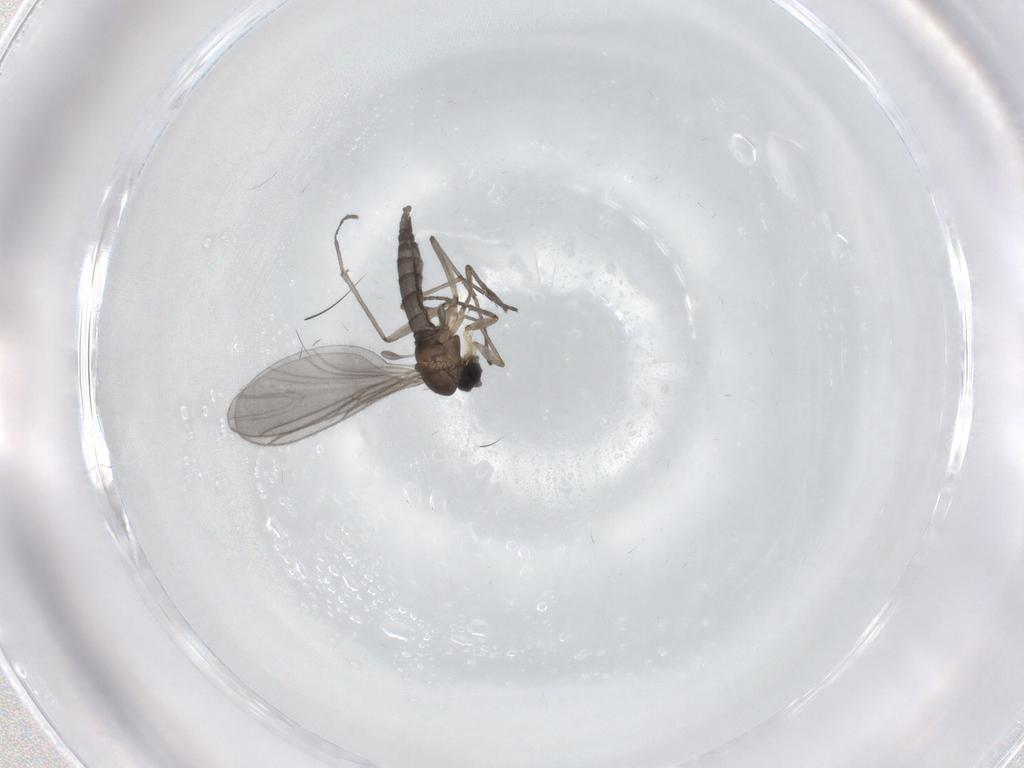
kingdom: Animalia
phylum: Arthropoda
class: Insecta
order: Diptera
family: Sciaridae
